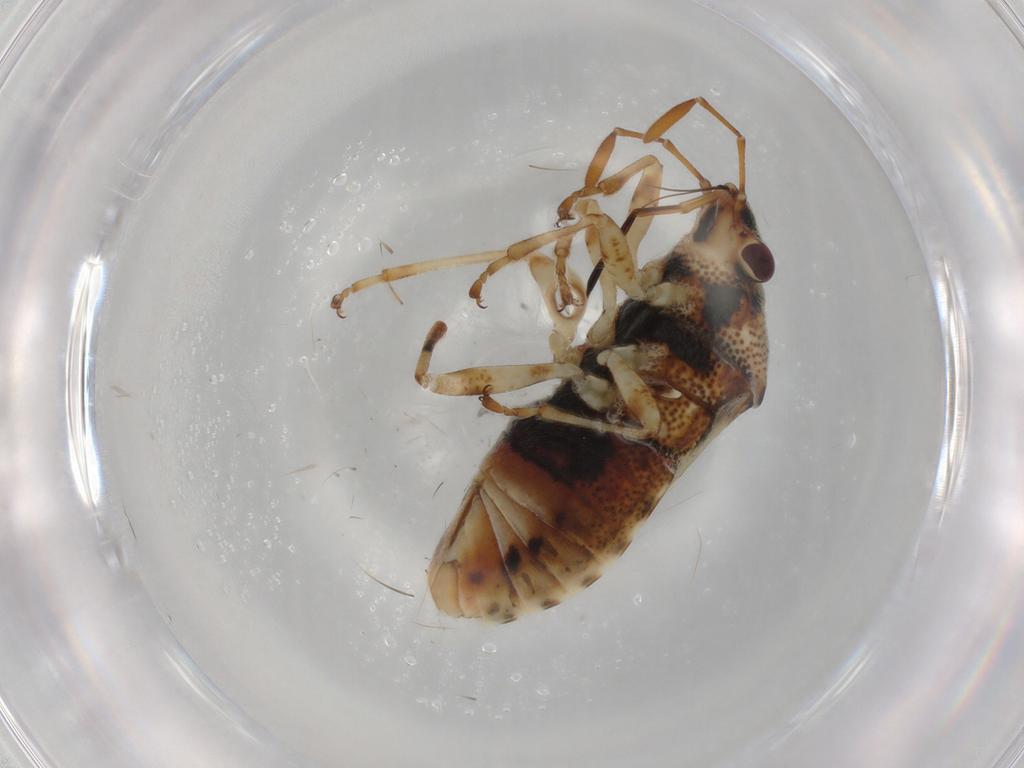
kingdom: Animalia
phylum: Arthropoda
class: Insecta
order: Hemiptera
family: Lygaeidae
